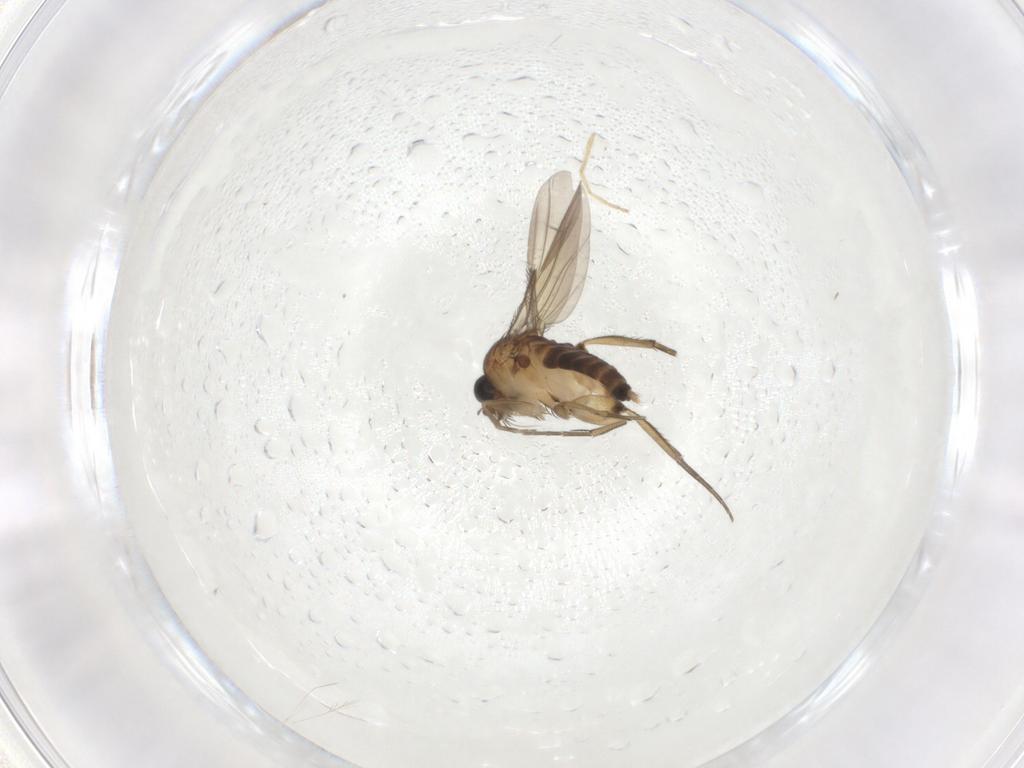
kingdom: Animalia
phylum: Arthropoda
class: Insecta
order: Diptera
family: Phoridae
